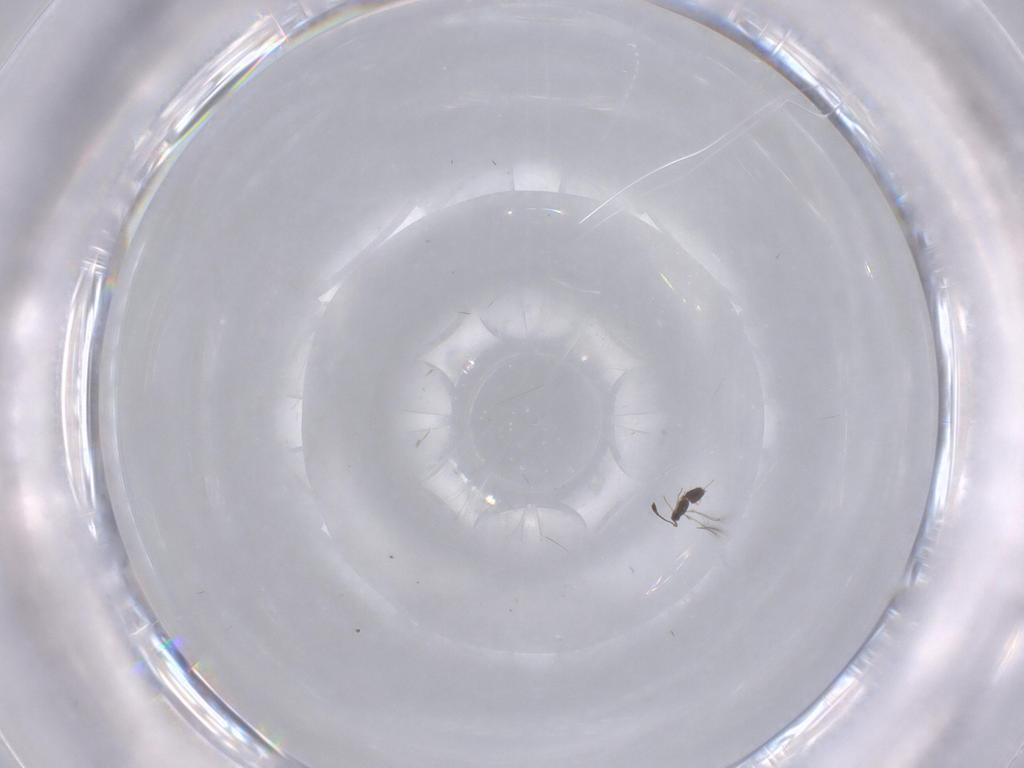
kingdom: Animalia
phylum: Arthropoda
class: Insecta
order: Hymenoptera
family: Mymaridae
